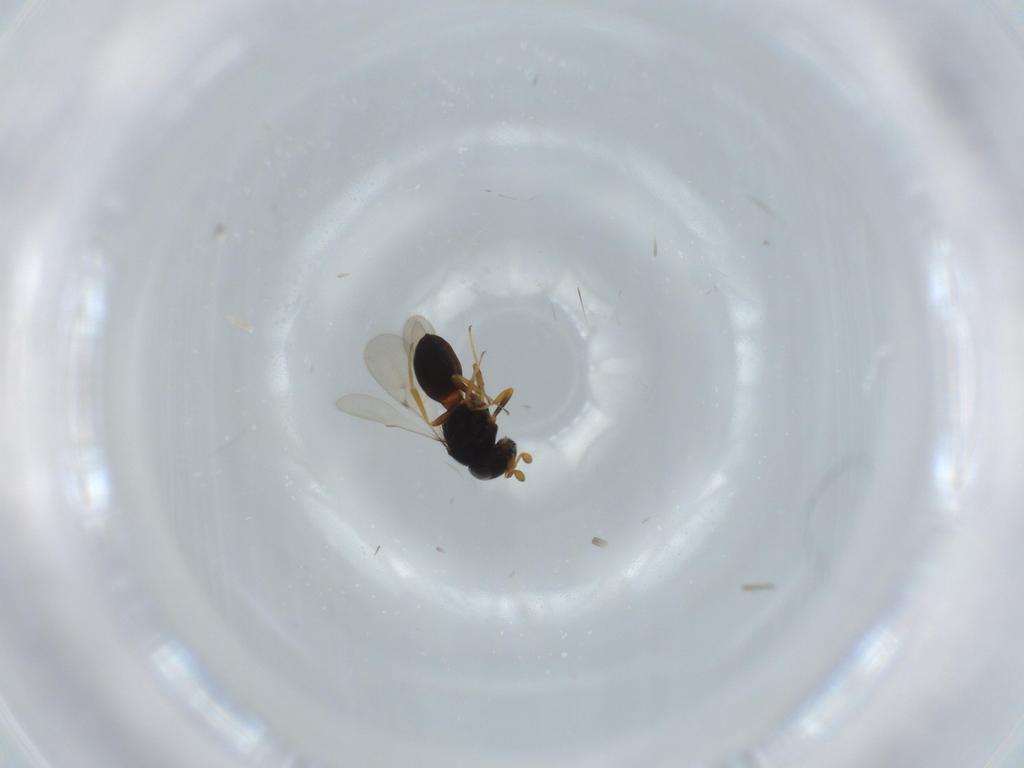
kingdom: Animalia
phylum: Arthropoda
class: Insecta
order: Hymenoptera
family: Scelionidae
